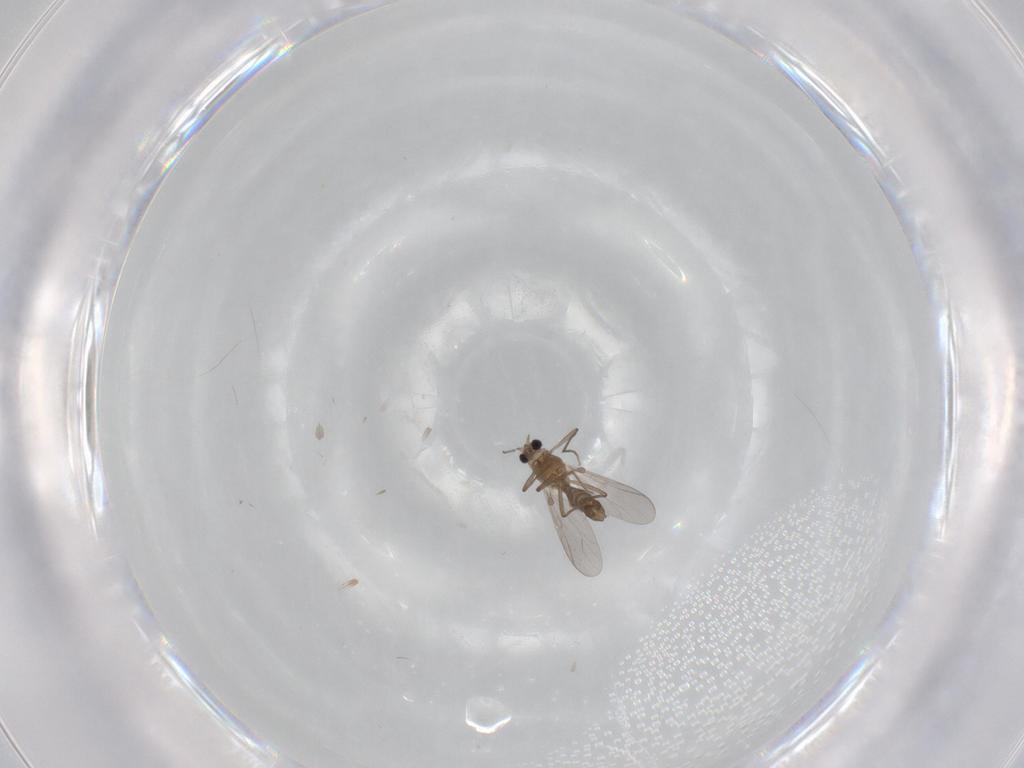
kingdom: Animalia
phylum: Arthropoda
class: Insecta
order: Diptera
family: Chironomidae
